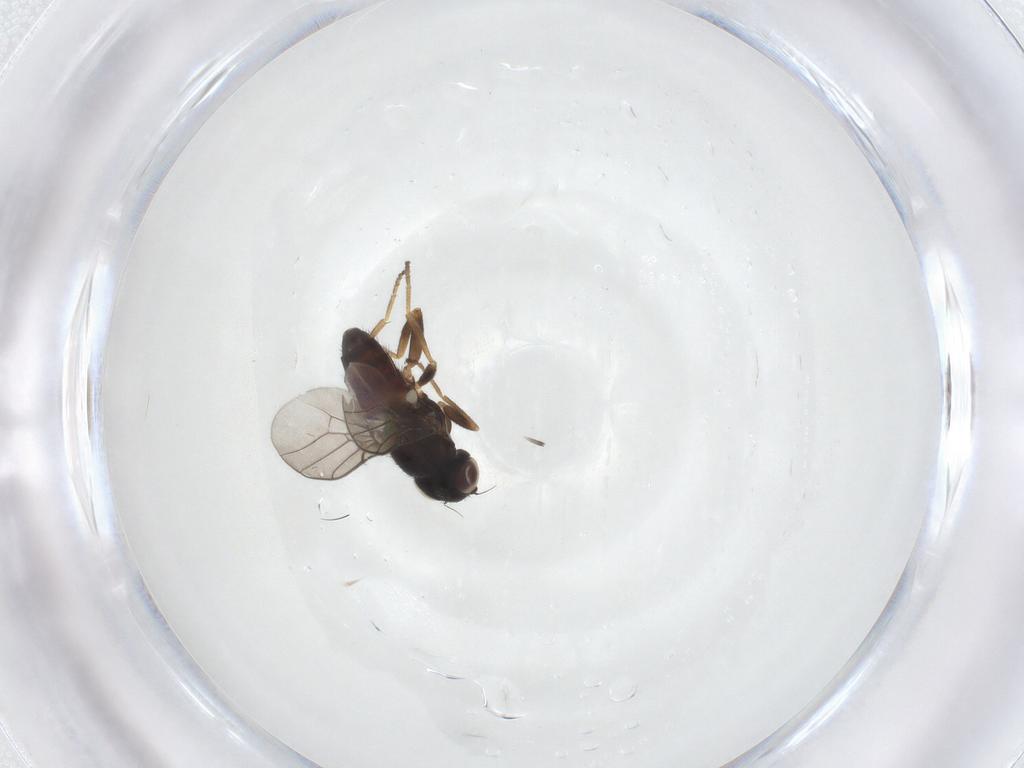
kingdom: Animalia
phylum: Arthropoda
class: Insecta
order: Diptera
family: Chloropidae
